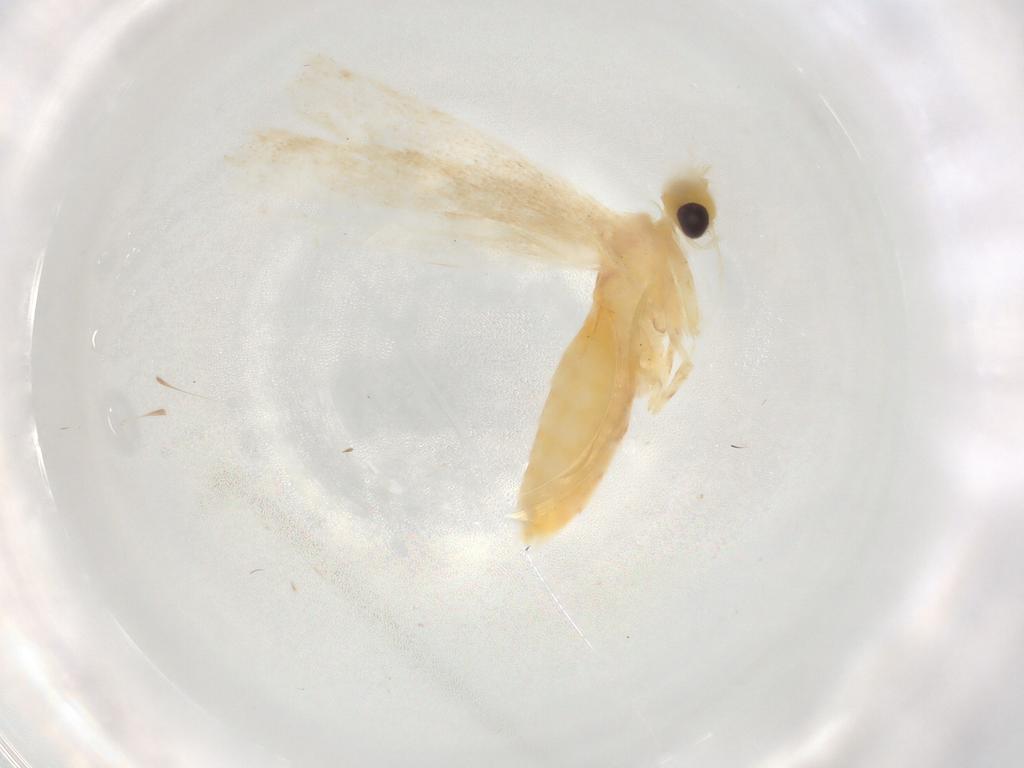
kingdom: Animalia
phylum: Arthropoda
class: Insecta
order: Lepidoptera
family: Gracillariidae
